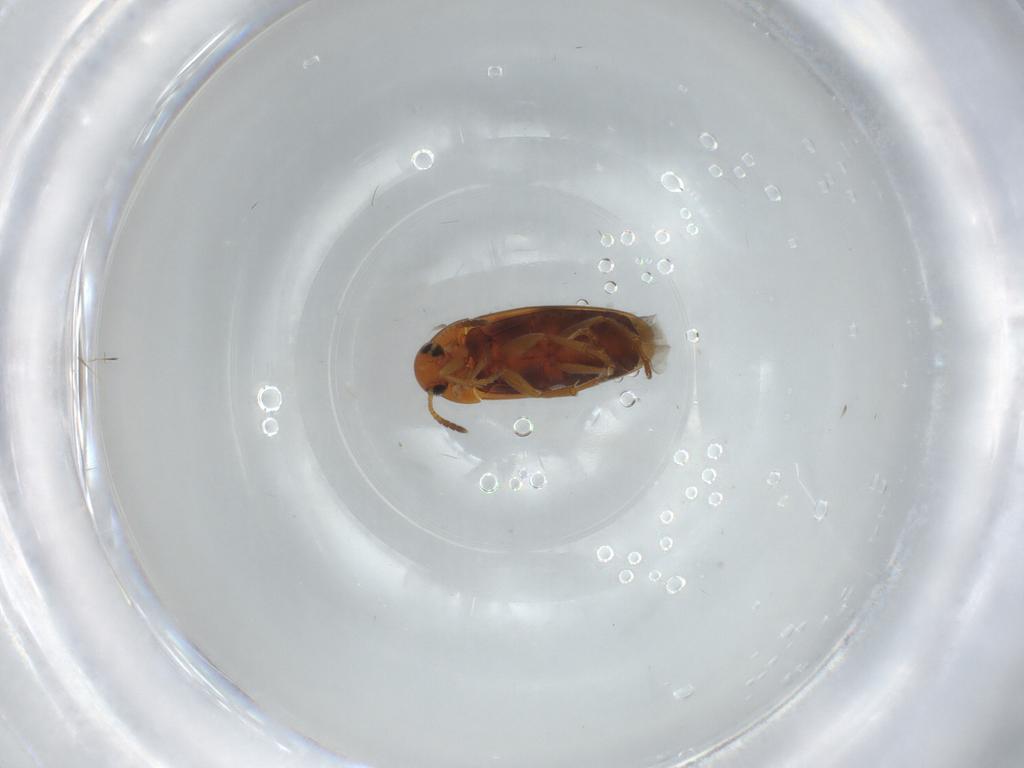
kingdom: Animalia
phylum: Arthropoda
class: Insecta
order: Coleoptera
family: Scraptiidae
